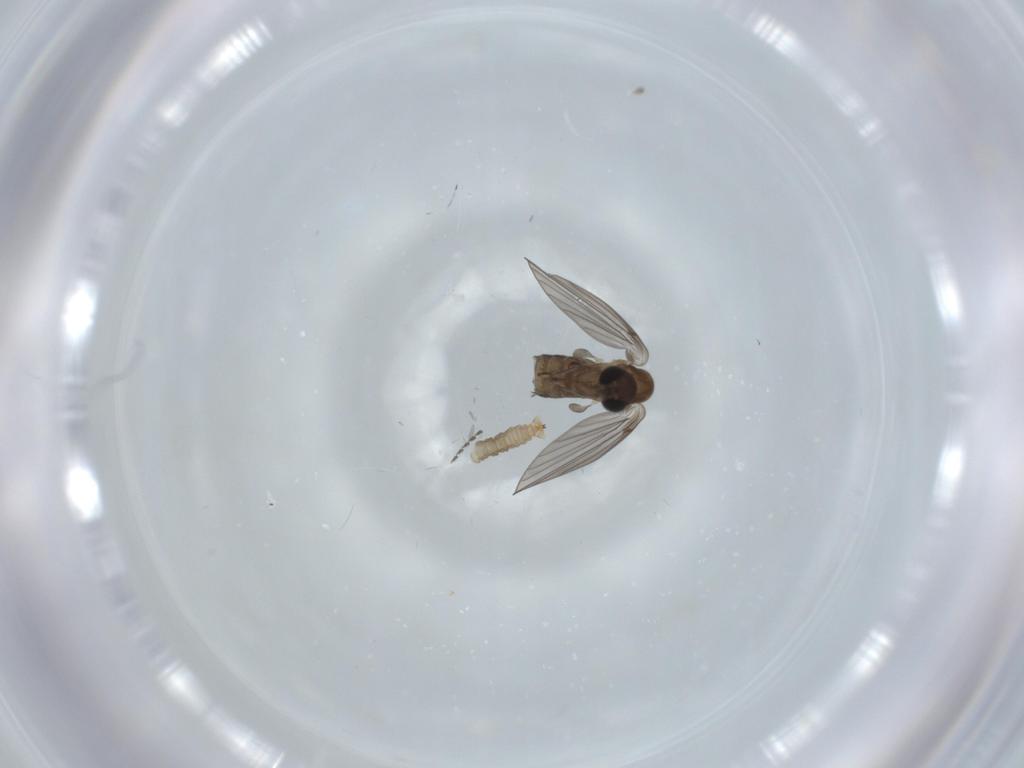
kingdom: Animalia
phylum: Arthropoda
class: Insecta
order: Diptera
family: Cecidomyiidae
